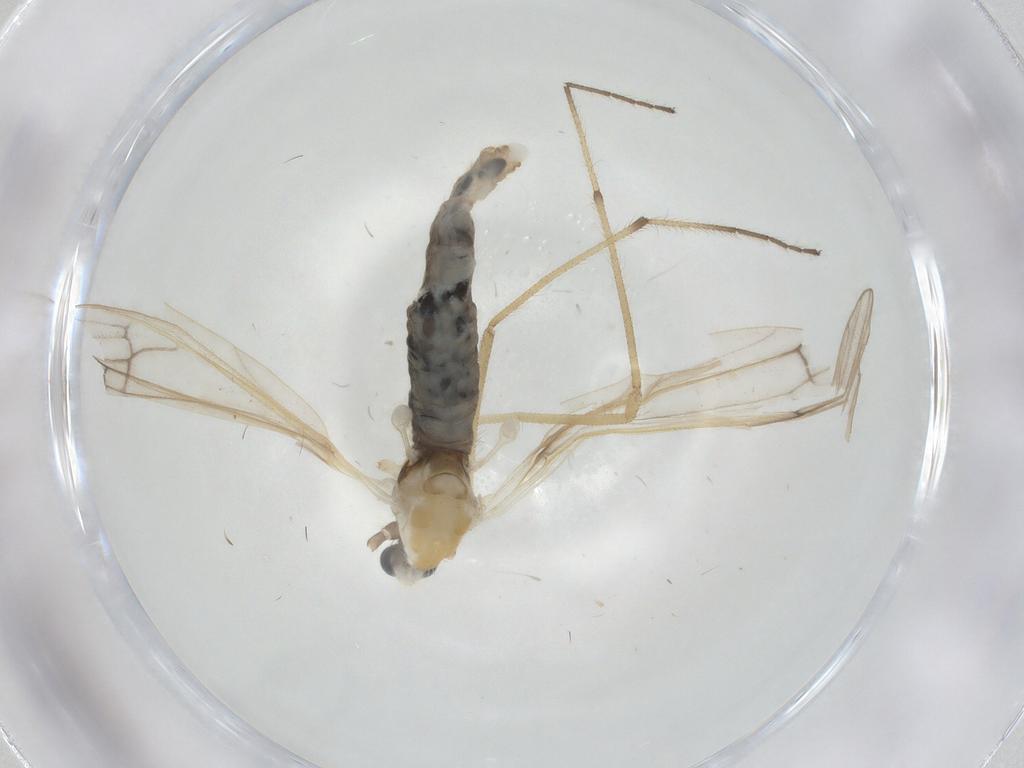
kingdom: Animalia
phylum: Arthropoda
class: Insecta
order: Diptera
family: Limoniidae
